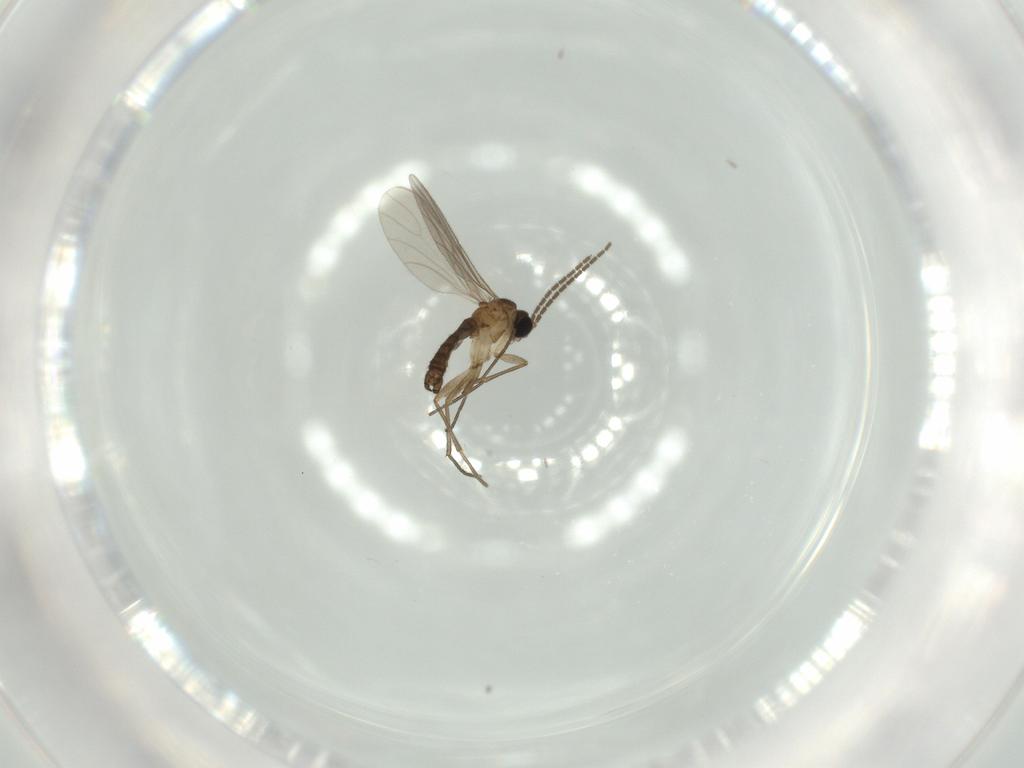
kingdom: Animalia
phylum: Arthropoda
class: Insecta
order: Diptera
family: Sciaridae
